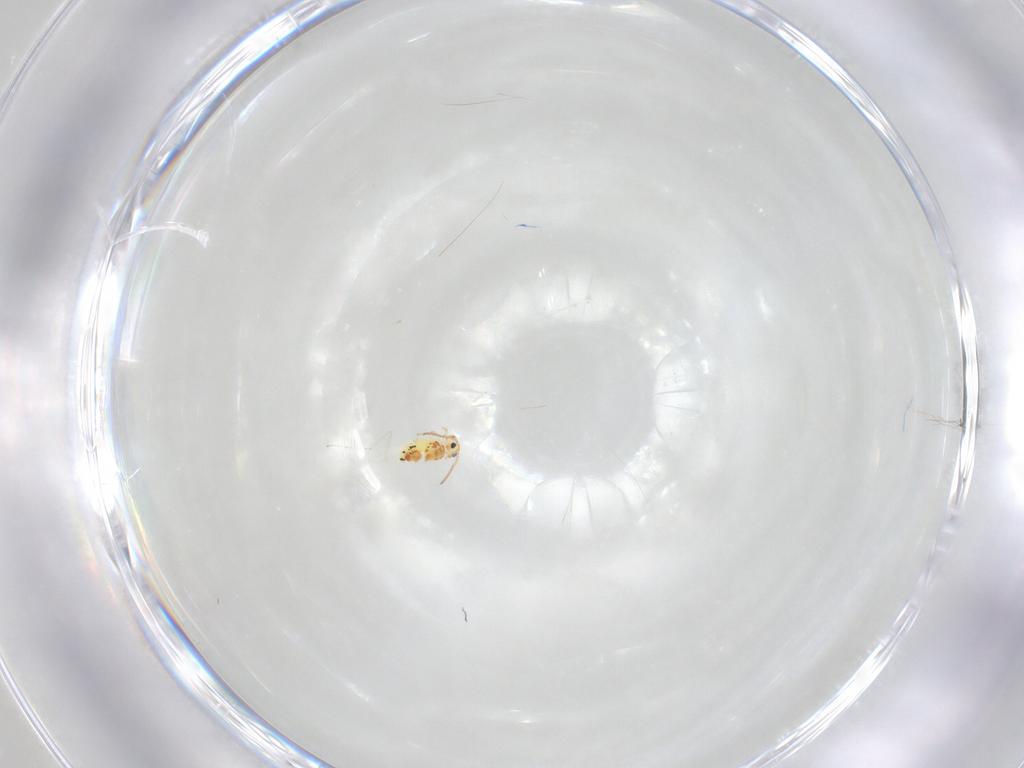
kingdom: Animalia
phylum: Arthropoda
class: Collembola
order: Symphypleona
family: Bourletiellidae
